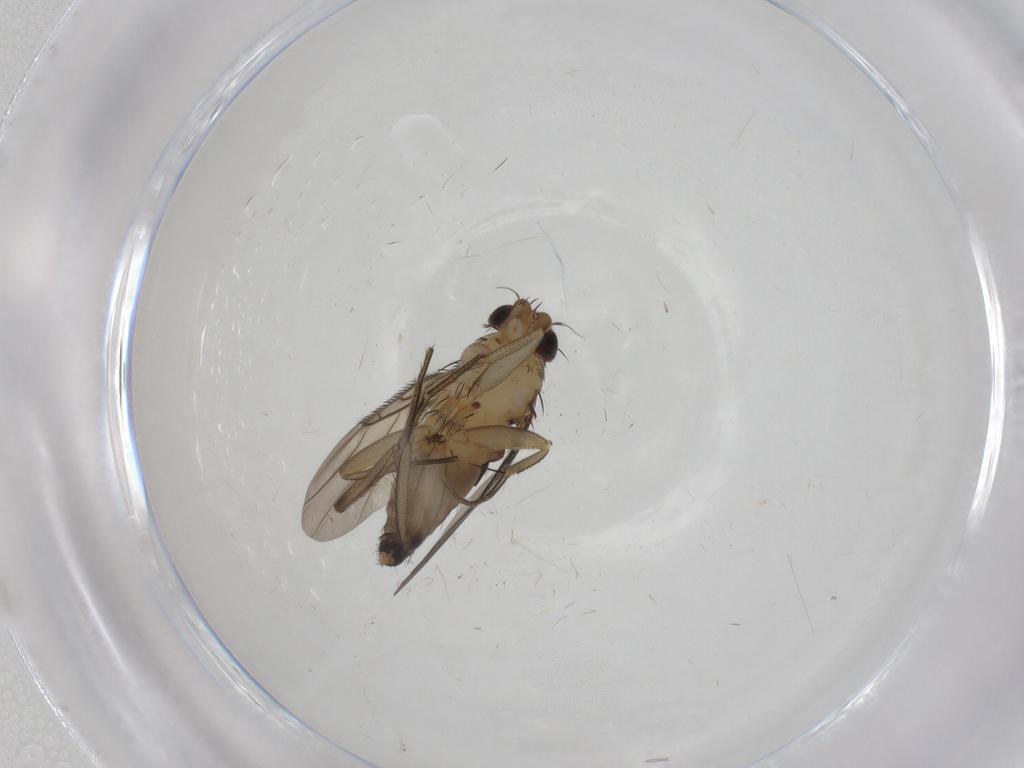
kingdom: Animalia
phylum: Arthropoda
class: Insecta
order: Diptera
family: Phoridae
